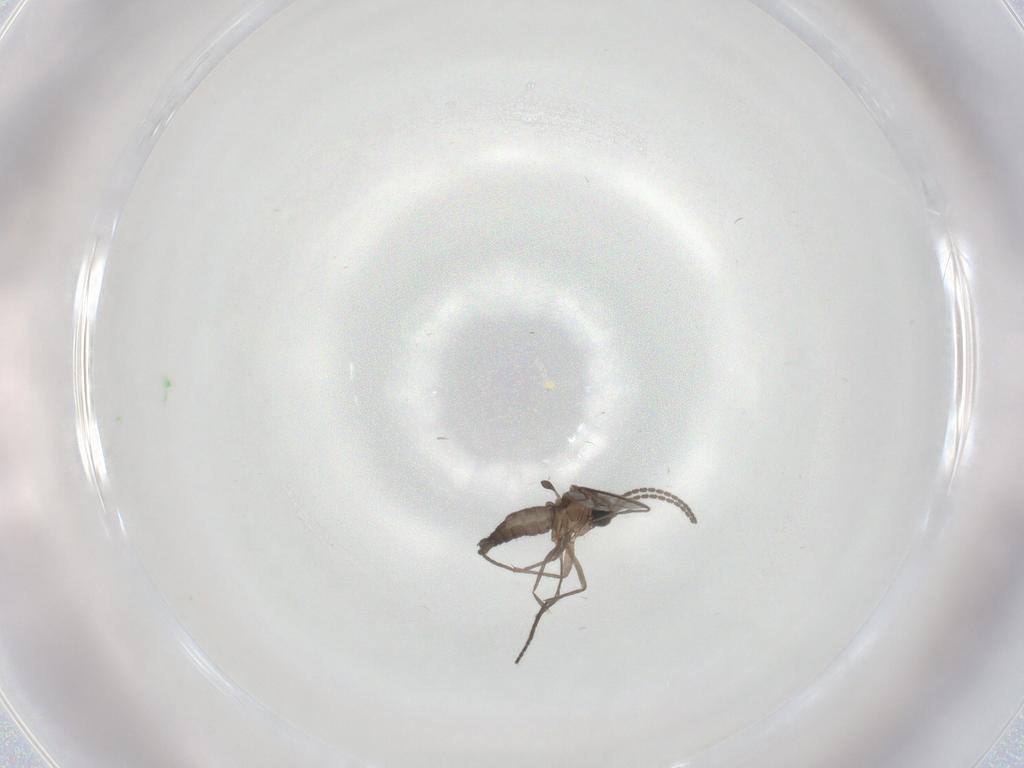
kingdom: Animalia
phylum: Arthropoda
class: Insecta
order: Diptera
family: Phoridae
